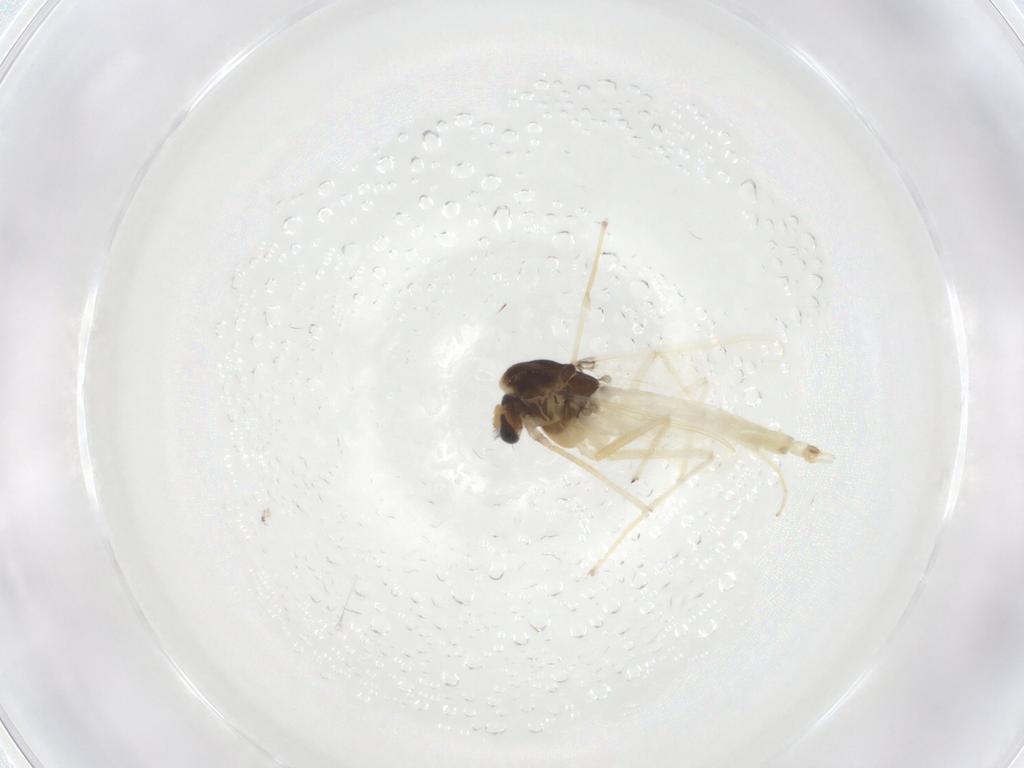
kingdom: Animalia
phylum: Arthropoda
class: Insecta
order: Diptera
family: Chironomidae
